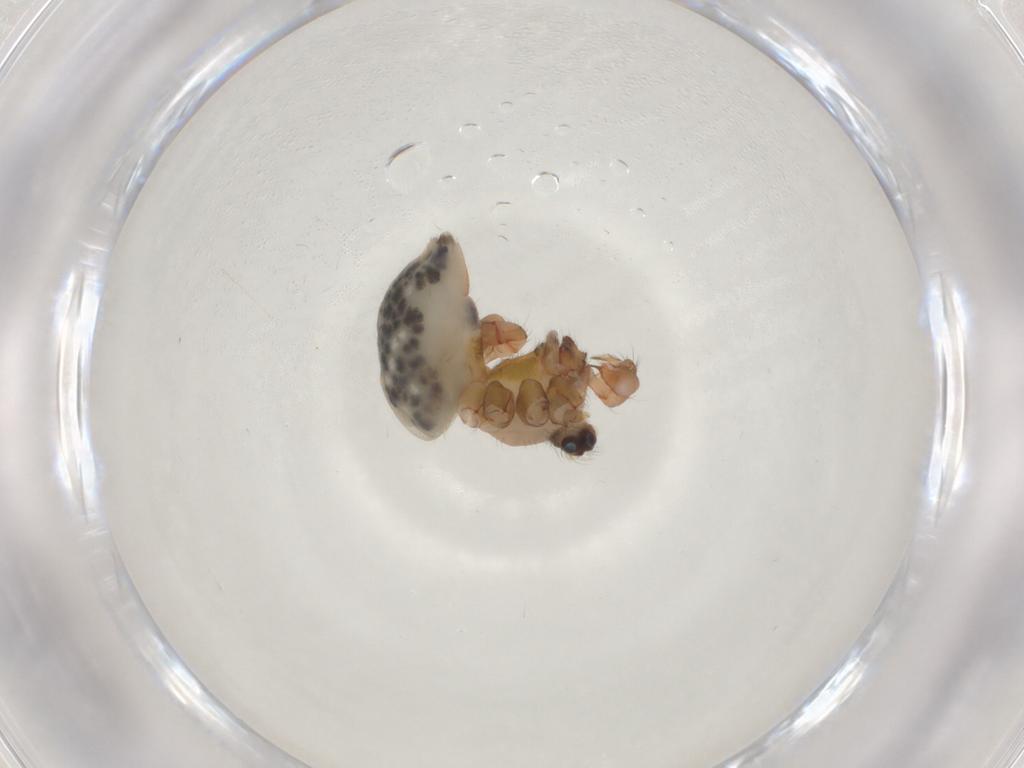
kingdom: Animalia
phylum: Arthropoda
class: Arachnida
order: Araneae
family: Pholcidae
